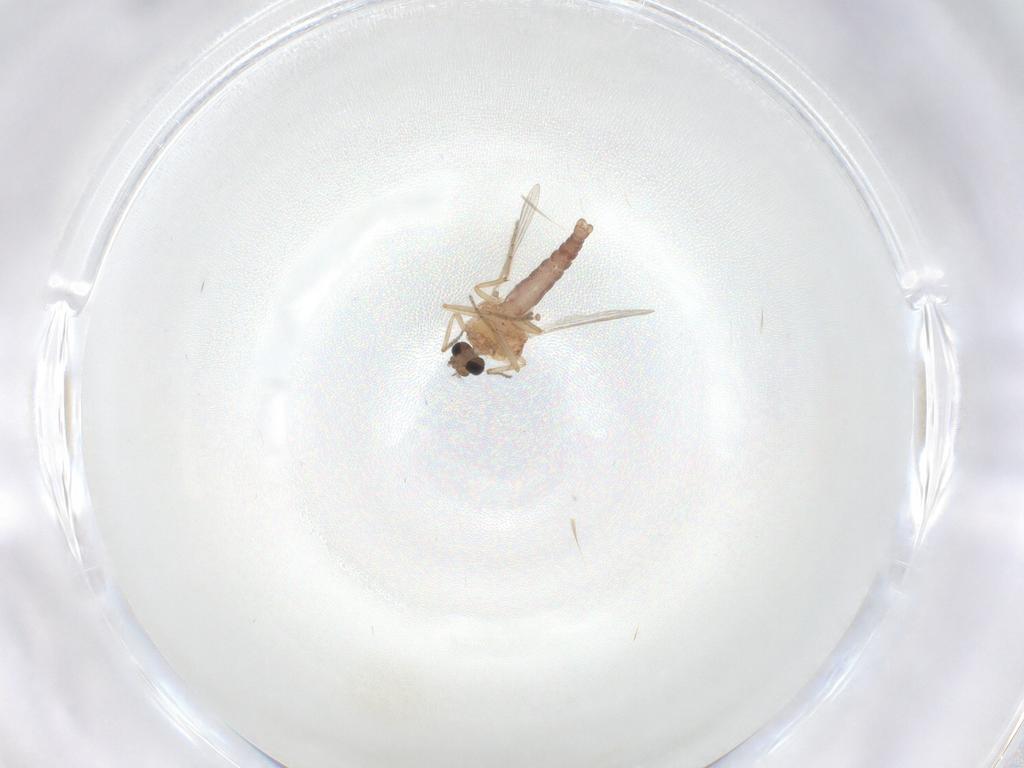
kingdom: Animalia
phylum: Arthropoda
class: Insecta
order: Diptera
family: Ceratopogonidae
